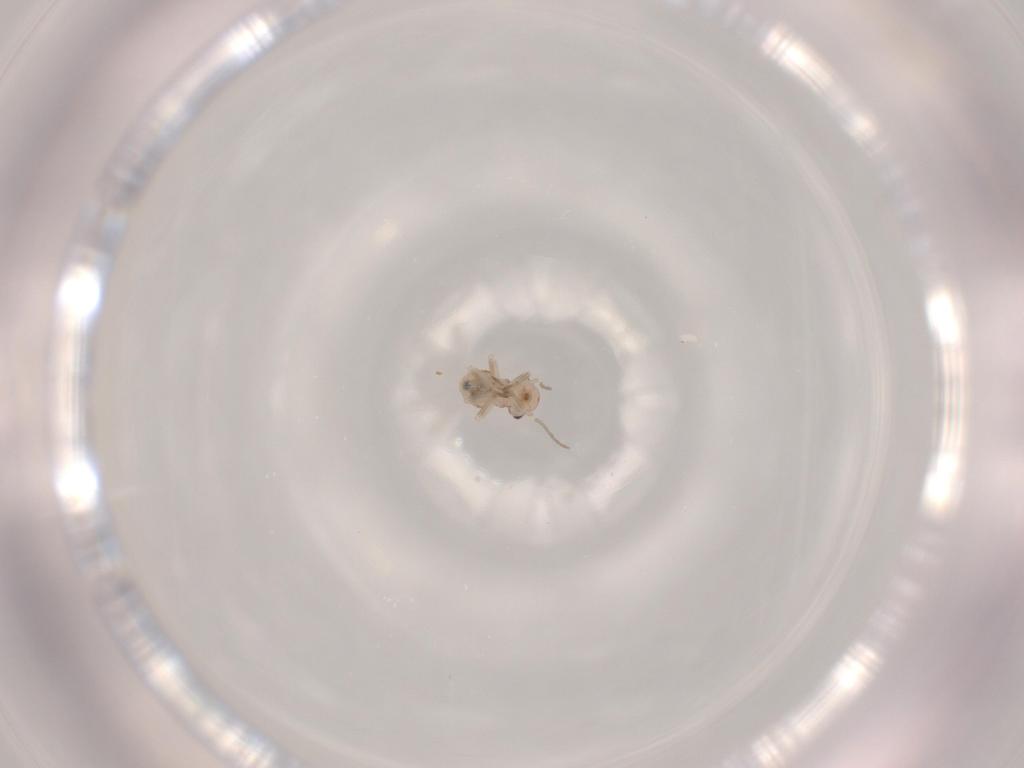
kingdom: Animalia
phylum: Arthropoda
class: Insecta
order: Psocodea
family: Psocidae
